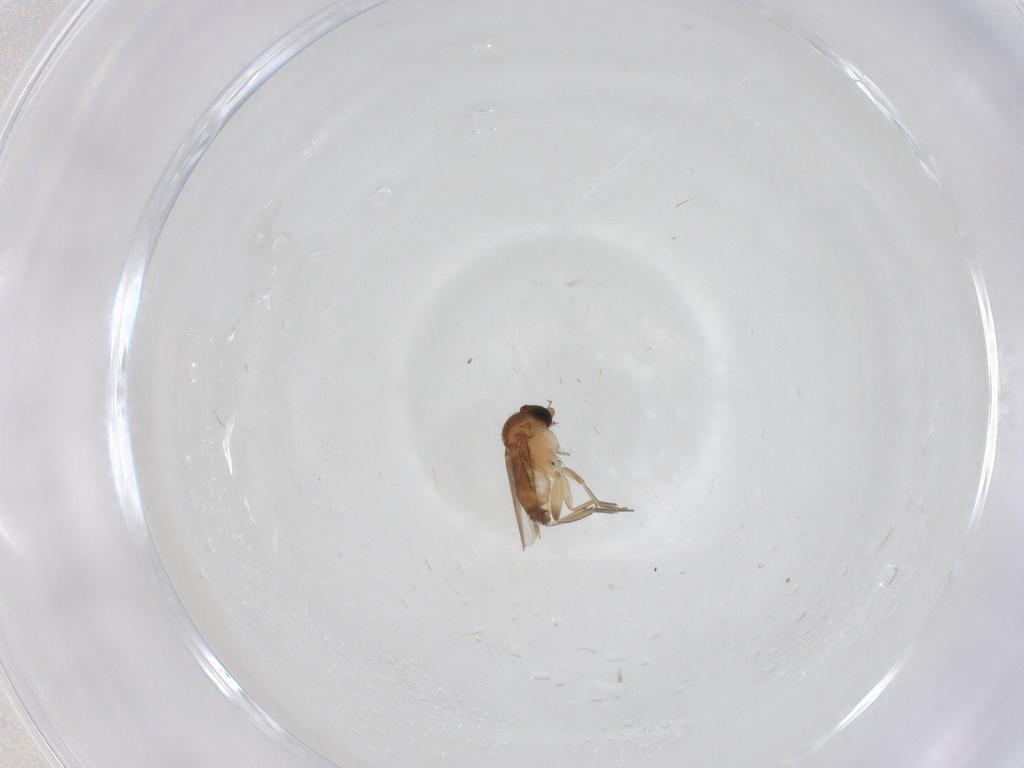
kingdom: Animalia
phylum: Arthropoda
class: Insecta
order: Diptera
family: Phoridae
